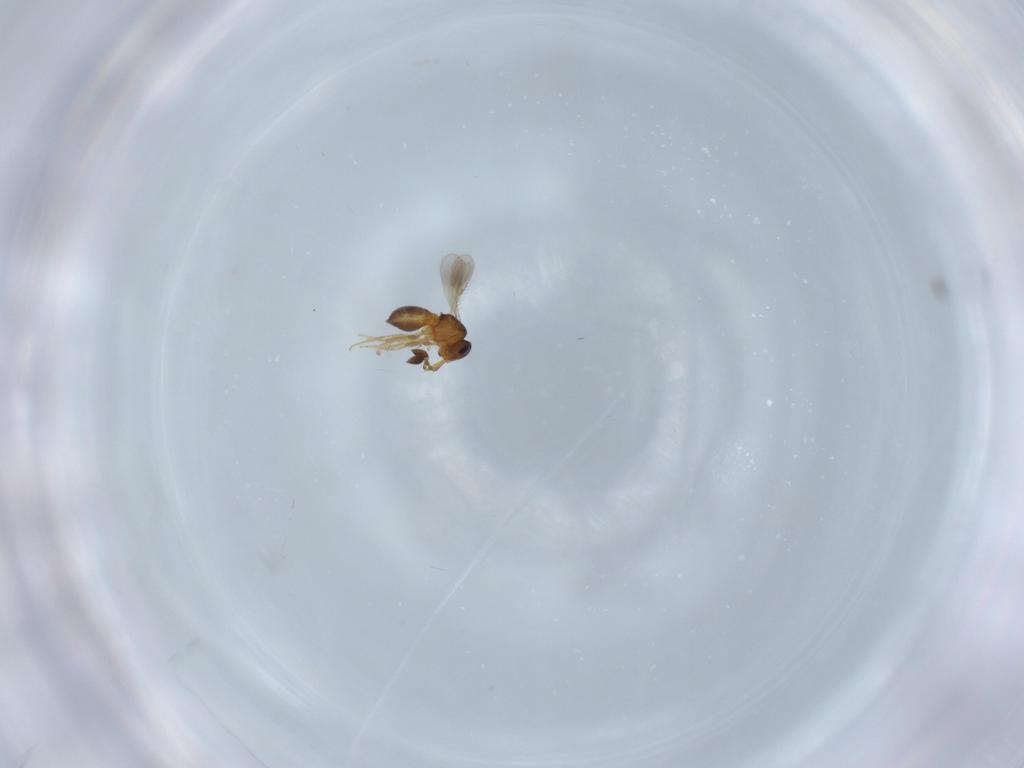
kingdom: Animalia
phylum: Arthropoda
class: Insecta
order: Hymenoptera
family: Scelionidae
